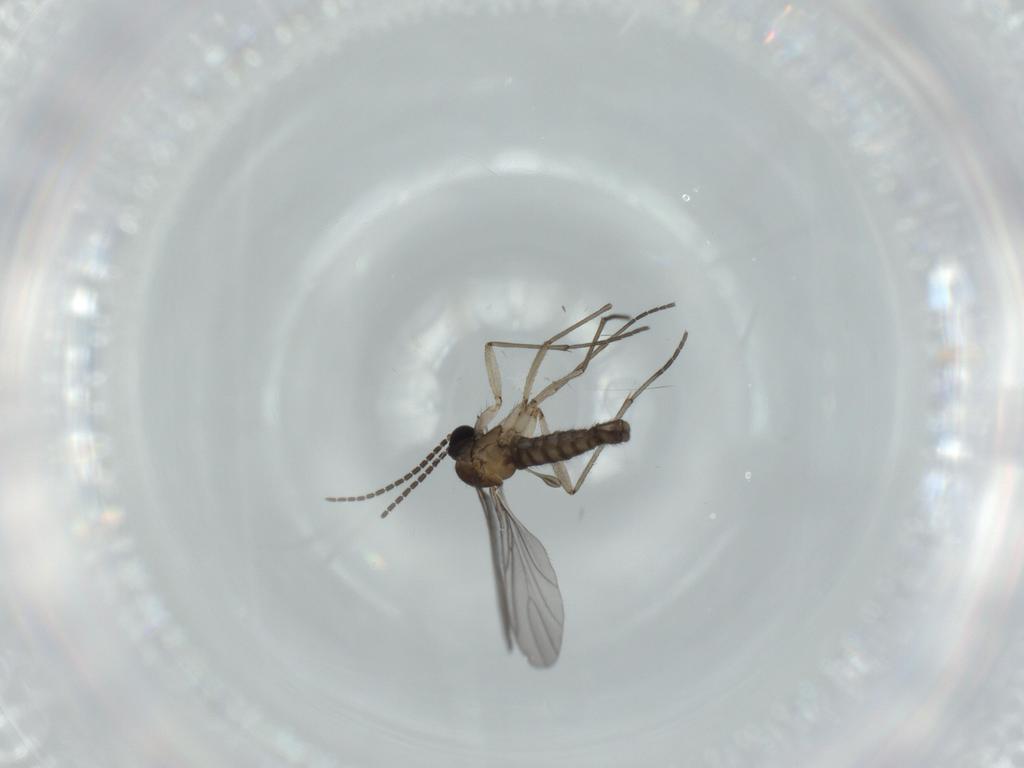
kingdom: Animalia
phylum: Arthropoda
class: Insecta
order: Diptera
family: Sciaridae
